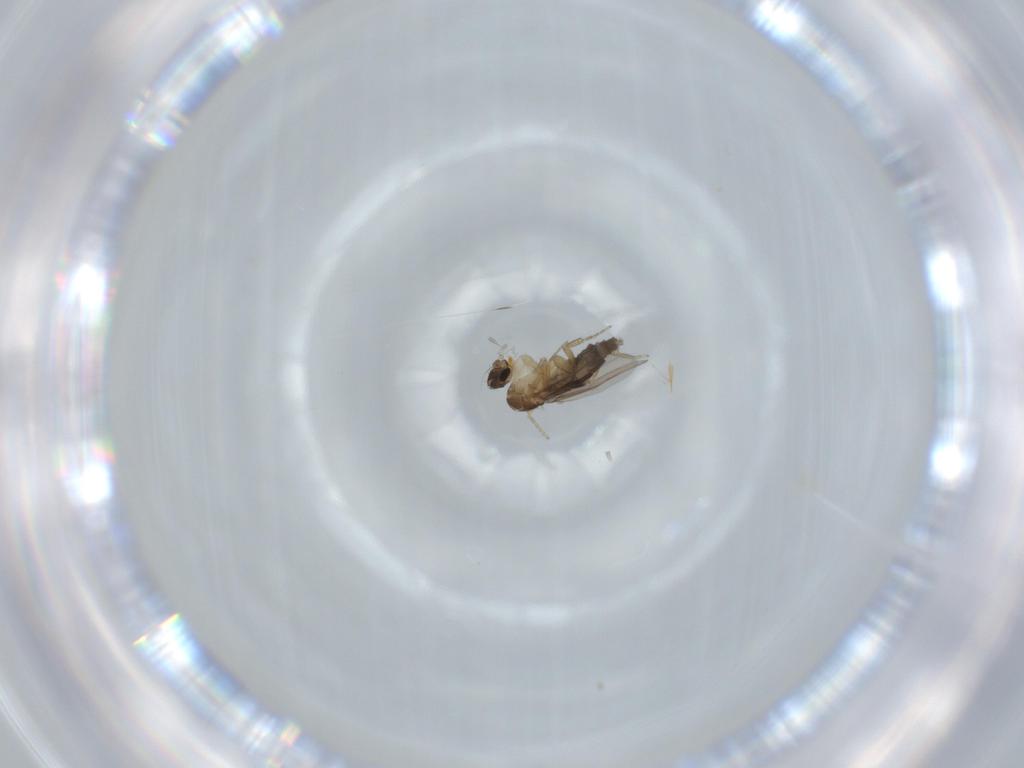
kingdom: Animalia
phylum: Arthropoda
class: Insecta
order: Diptera
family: Phoridae
